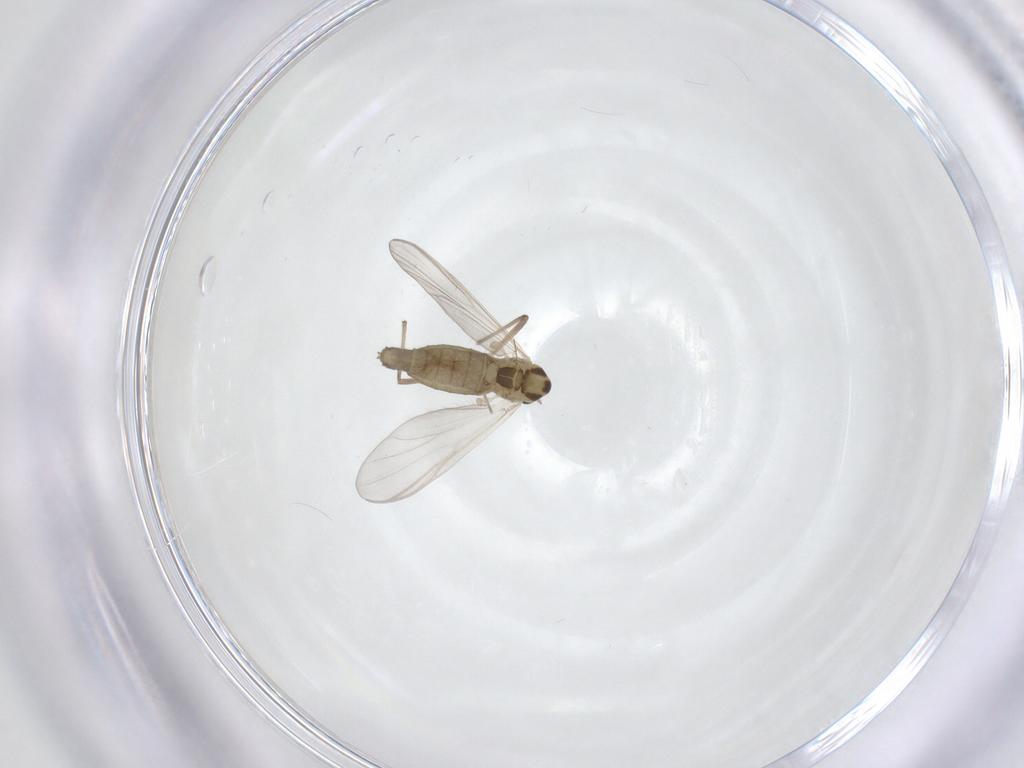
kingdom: Animalia
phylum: Arthropoda
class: Insecta
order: Diptera
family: Chironomidae
